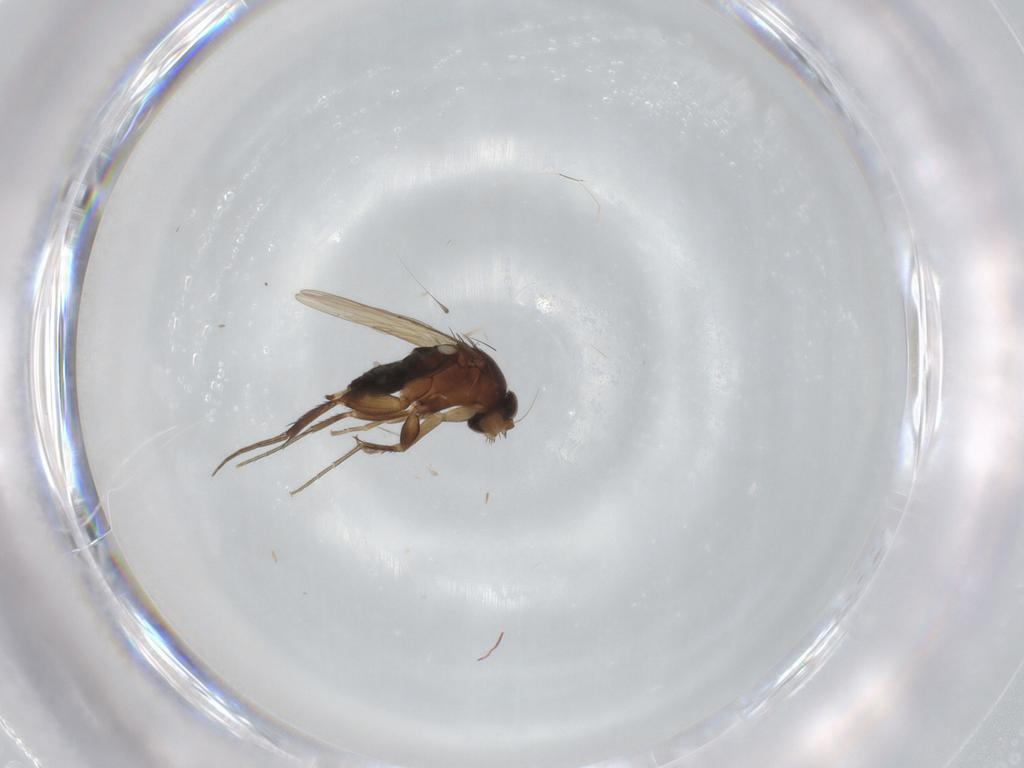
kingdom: Animalia
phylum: Arthropoda
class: Insecta
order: Diptera
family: Phoridae
